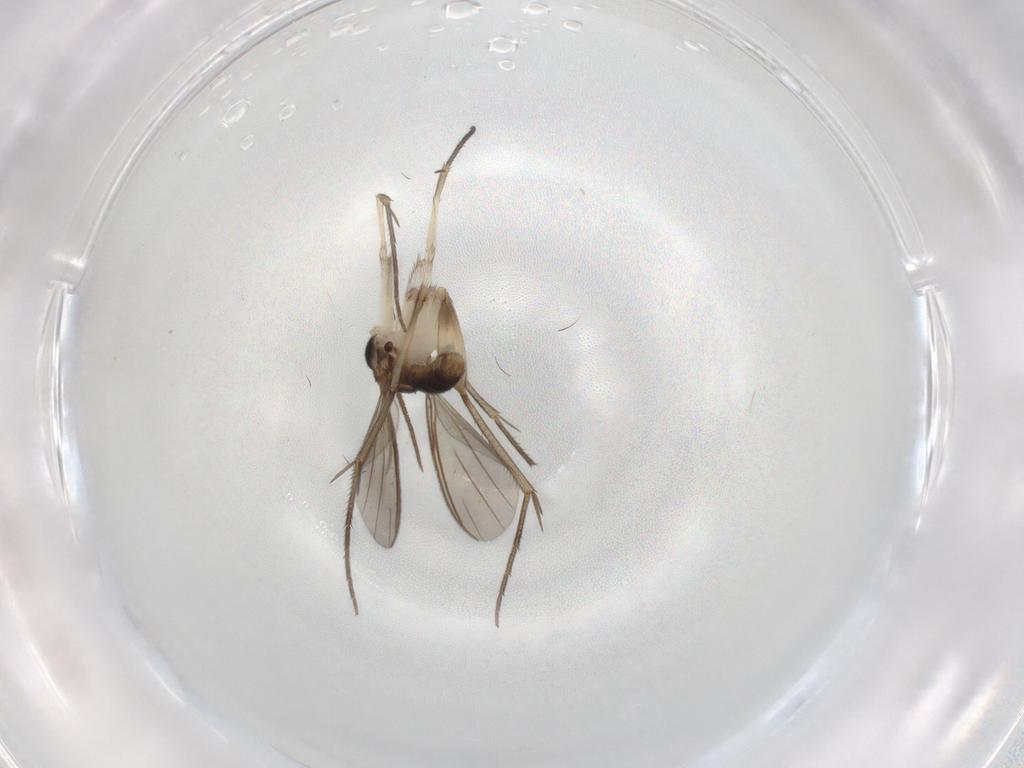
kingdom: Animalia
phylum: Arthropoda
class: Insecta
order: Diptera
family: Mycetophilidae
